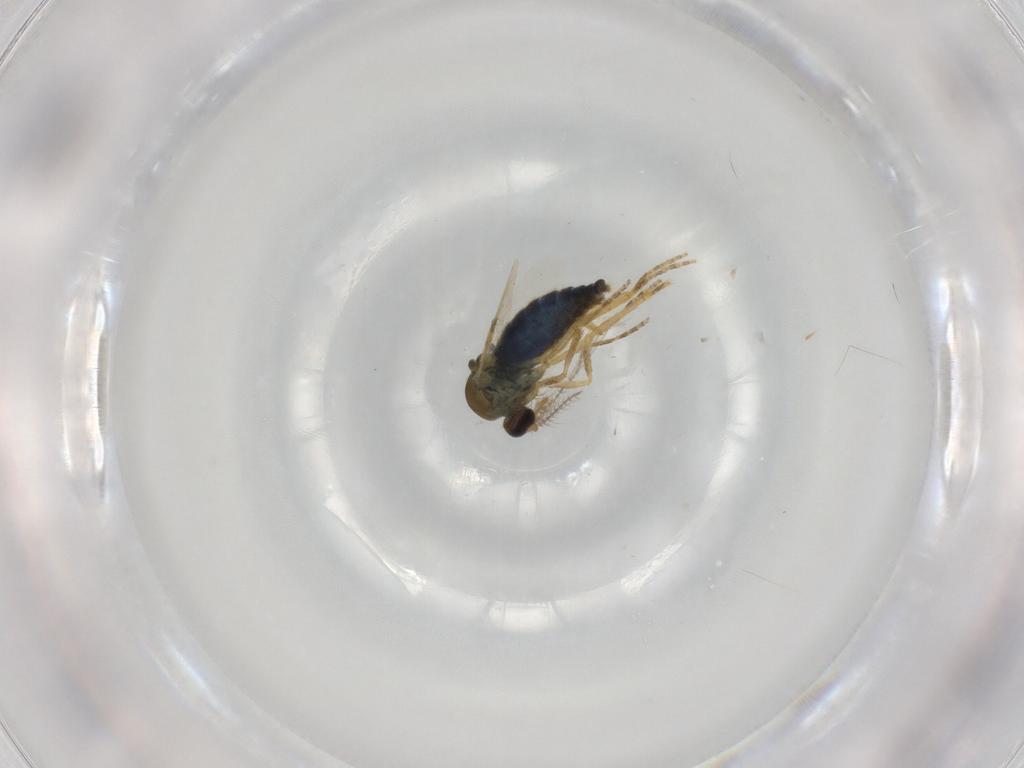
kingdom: Animalia
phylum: Arthropoda
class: Insecta
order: Diptera
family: Ceratopogonidae
